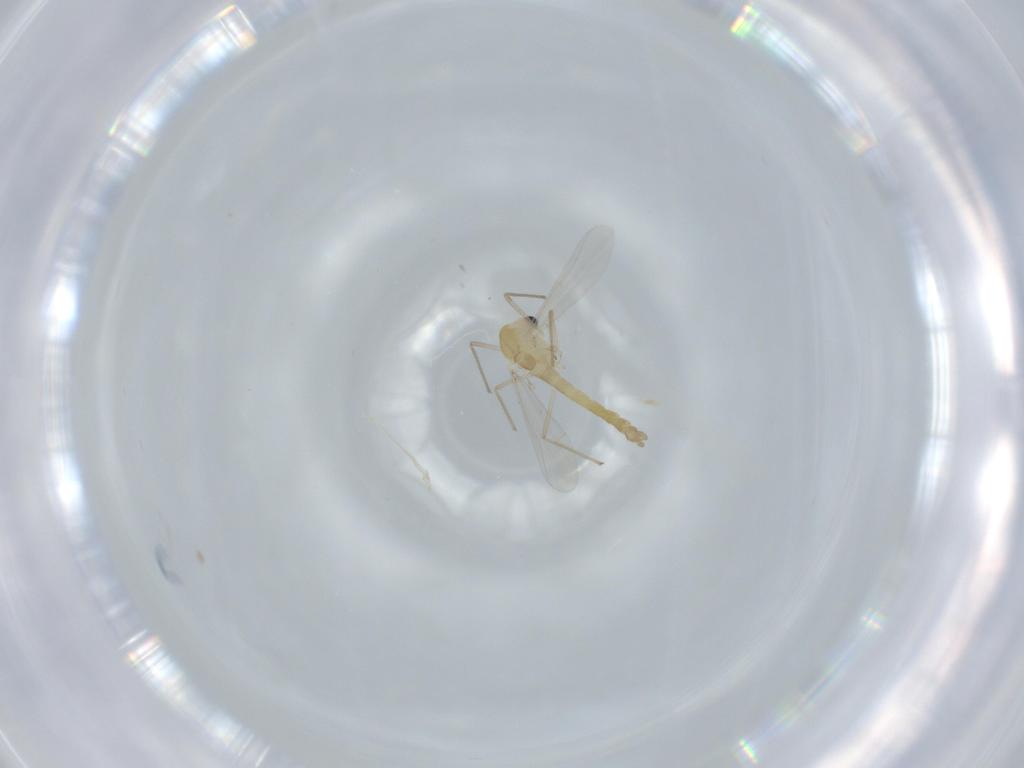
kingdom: Animalia
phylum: Arthropoda
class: Insecta
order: Diptera
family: Chironomidae
